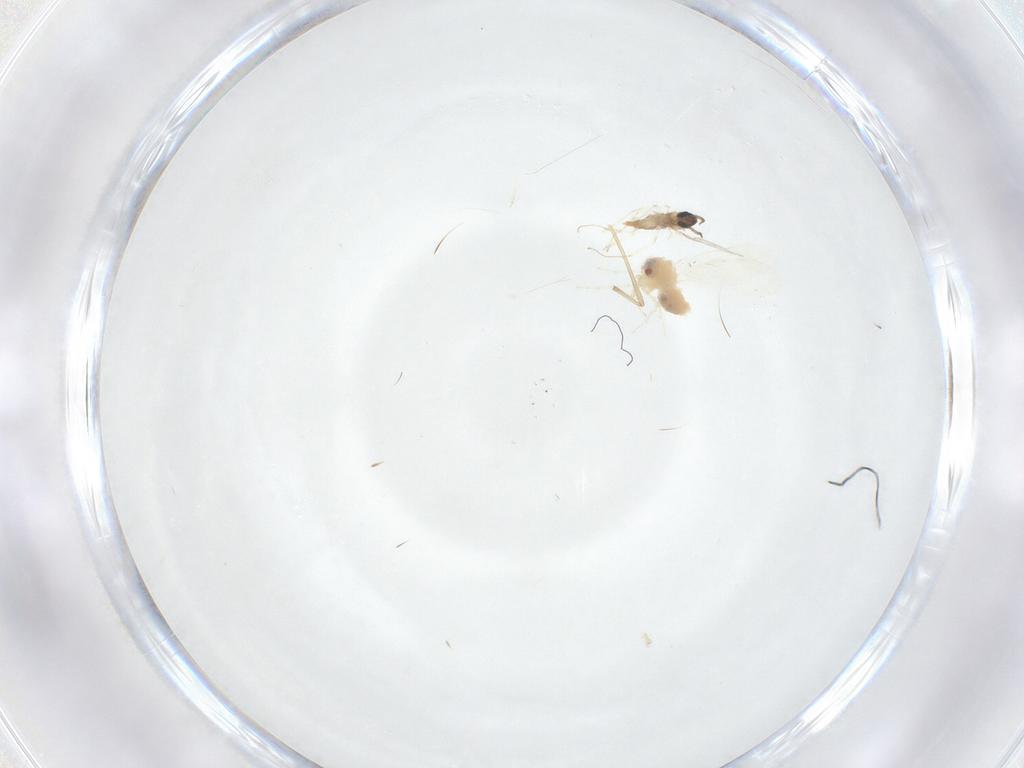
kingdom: Animalia
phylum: Arthropoda
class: Insecta
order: Diptera
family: Cecidomyiidae
